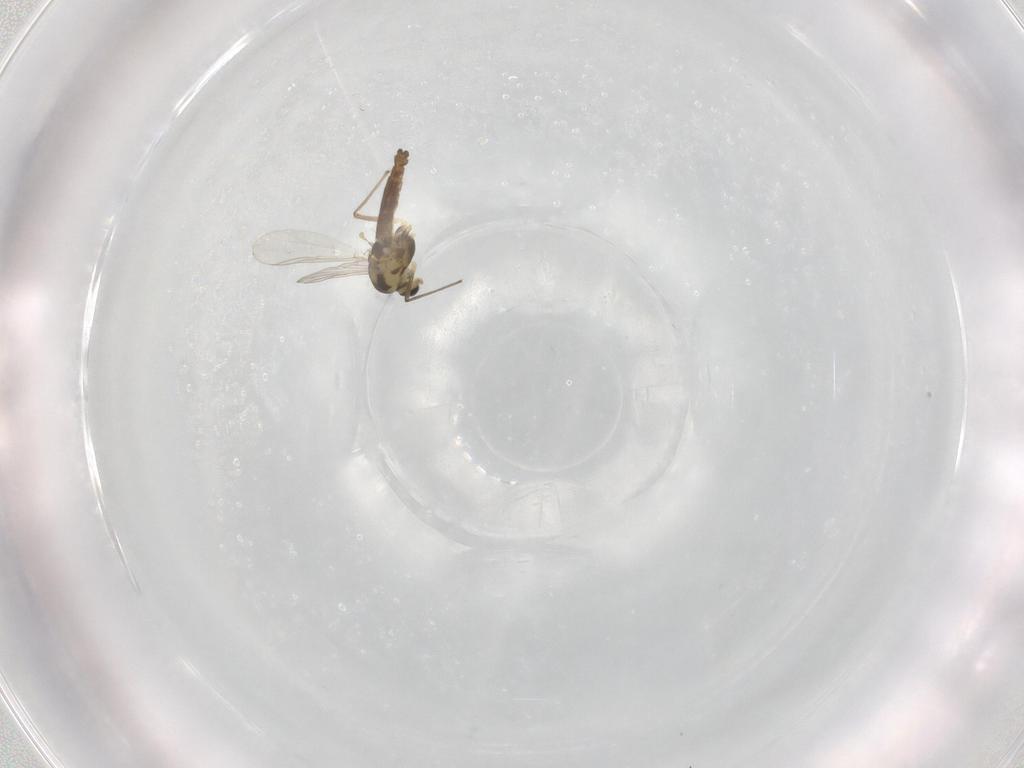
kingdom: Animalia
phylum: Arthropoda
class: Insecta
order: Diptera
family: Chironomidae
